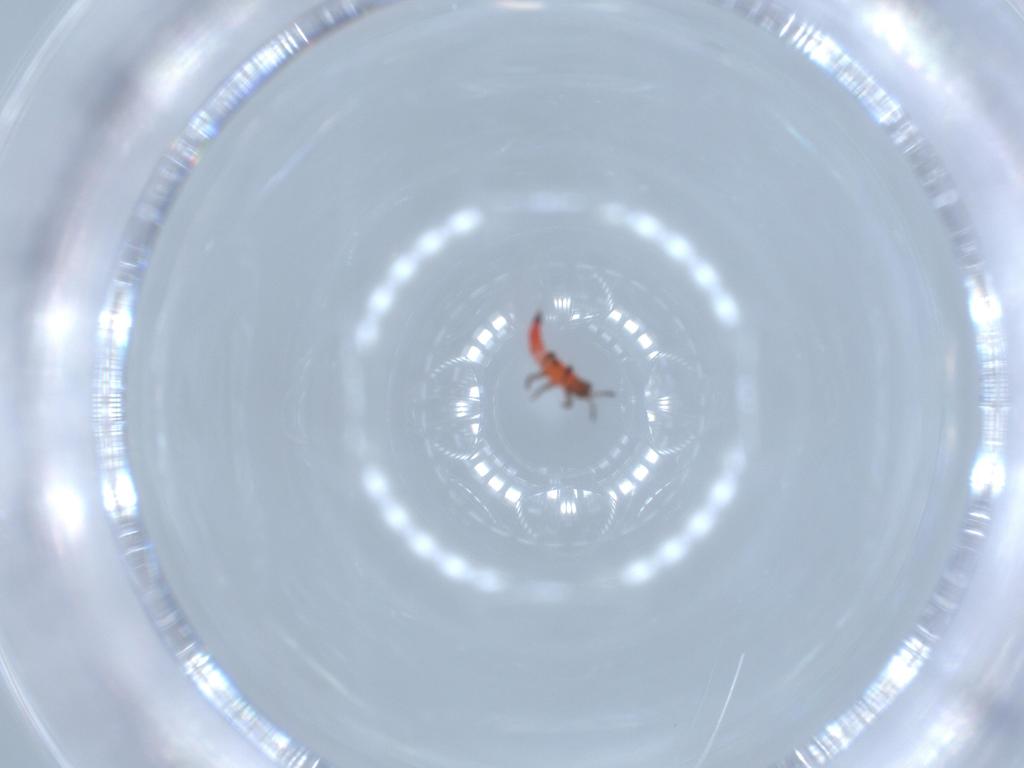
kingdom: Animalia
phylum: Arthropoda
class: Insecta
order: Thysanoptera
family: Phlaeothripidae
